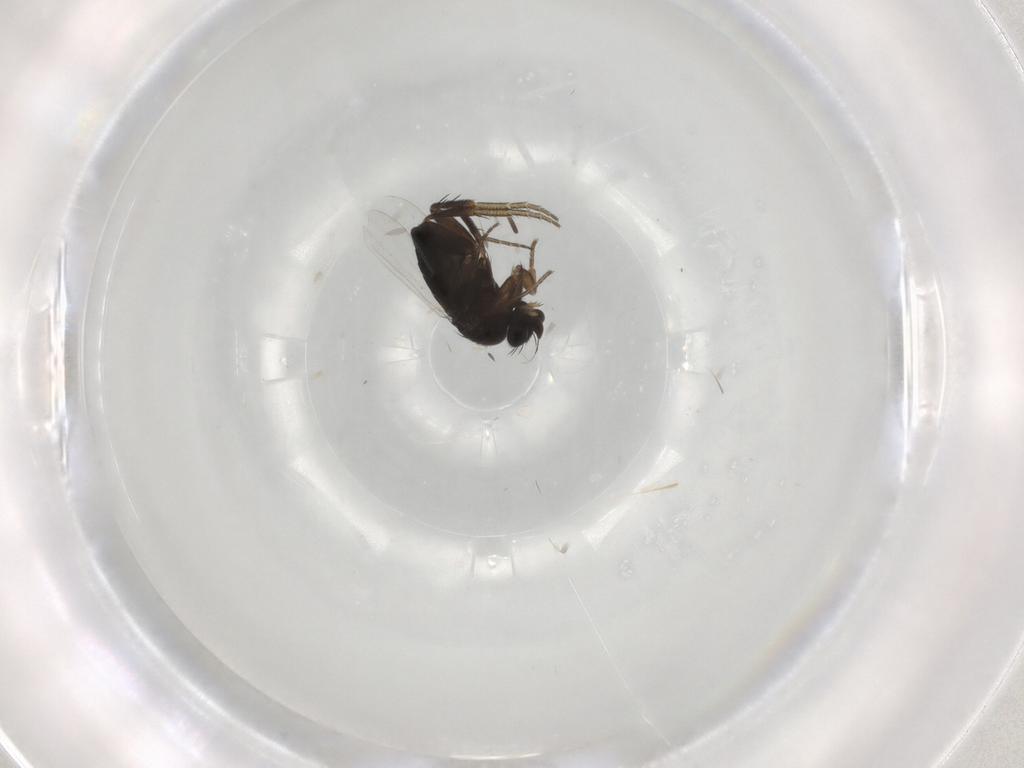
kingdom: Animalia
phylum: Arthropoda
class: Insecta
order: Diptera
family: Phoridae
